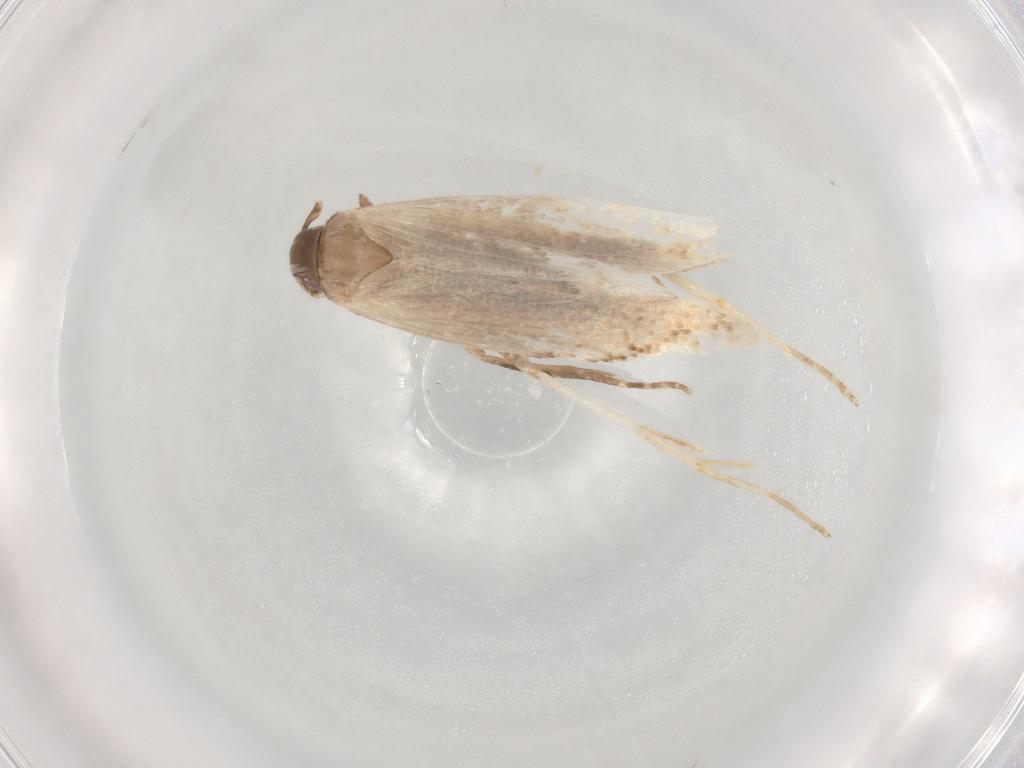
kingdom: Animalia
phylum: Arthropoda
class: Insecta
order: Lepidoptera
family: Gelechiidae
